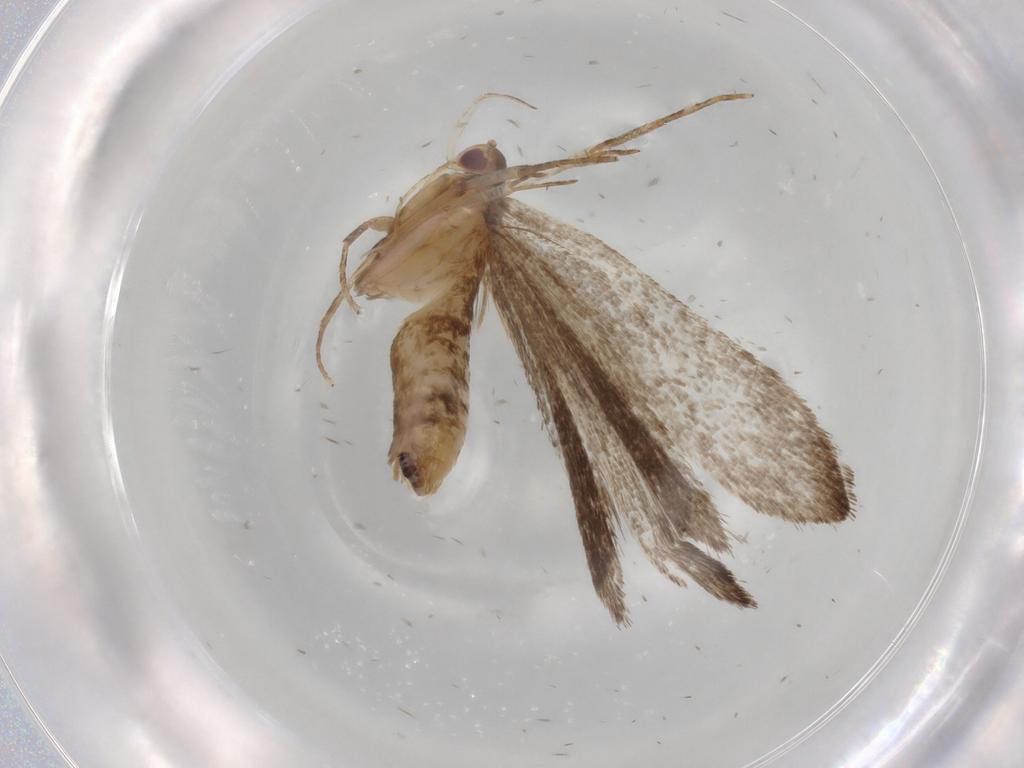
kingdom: Animalia
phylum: Arthropoda
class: Insecta
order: Lepidoptera
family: Gelechiidae
